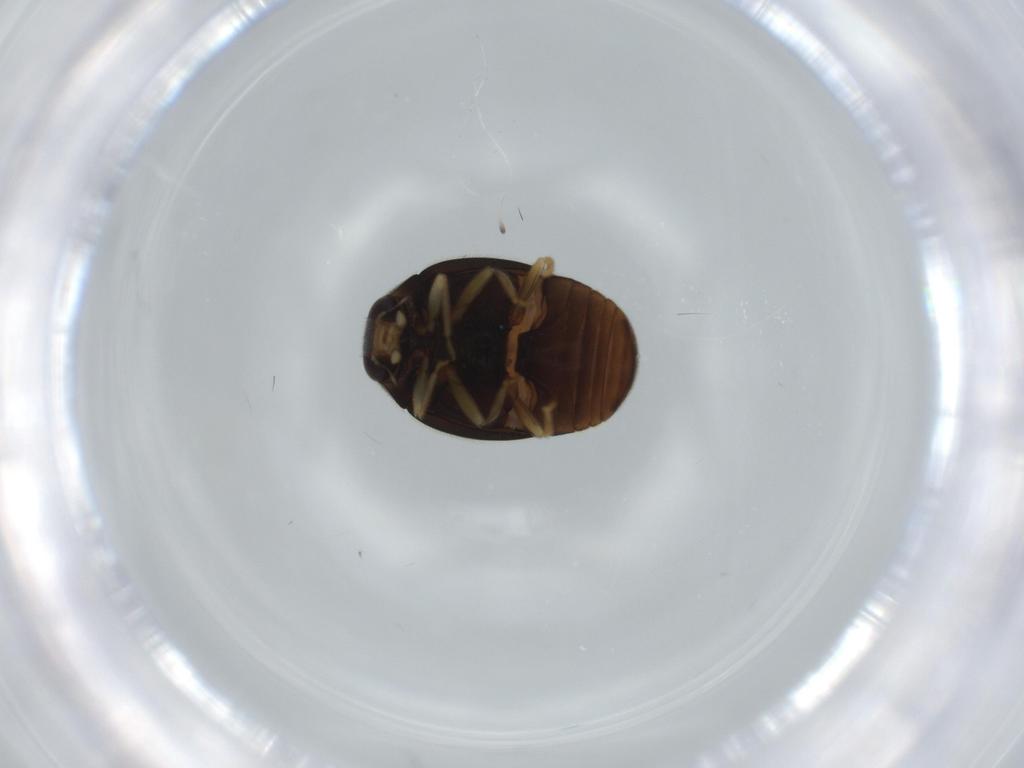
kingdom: Animalia
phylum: Arthropoda
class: Insecta
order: Coleoptera
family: Coccinellidae
